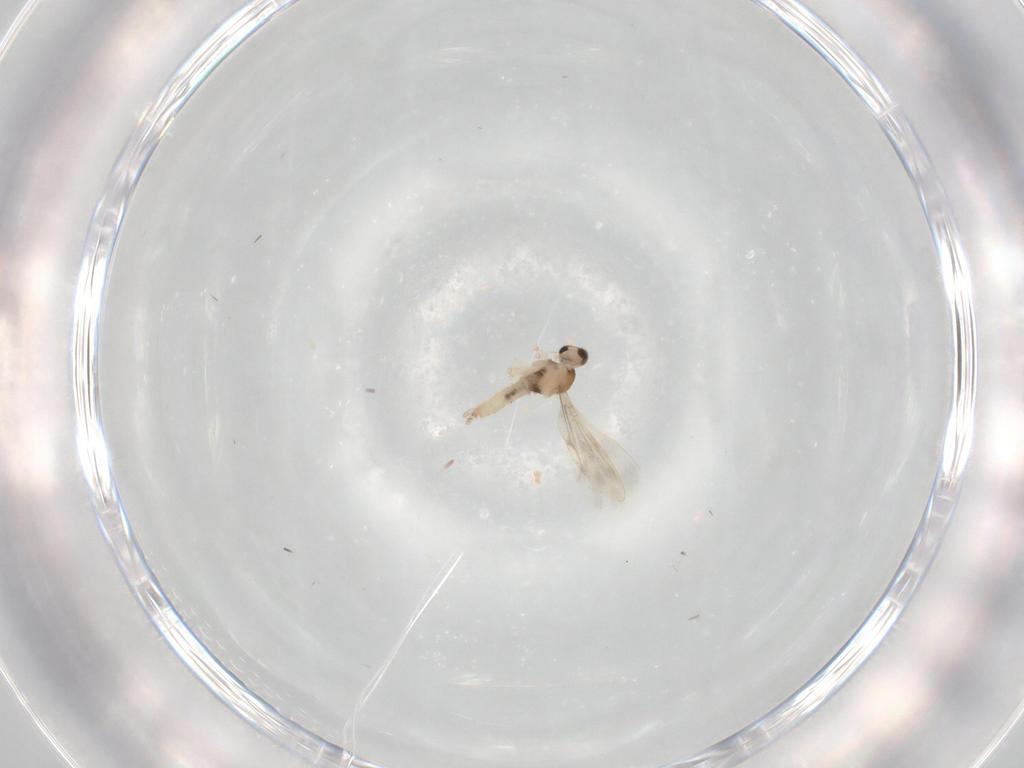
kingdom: Animalia
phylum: Arthropoda
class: Insecta
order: Diptera
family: Cecidomyiidae
